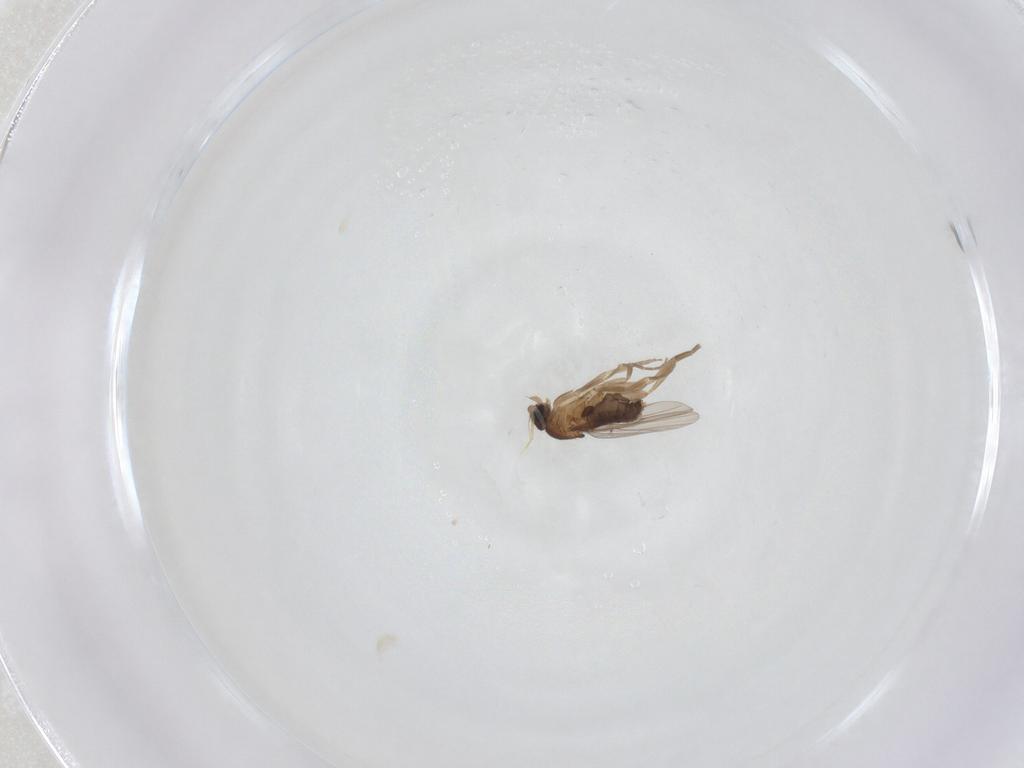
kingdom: Animalia
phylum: Arthropoda
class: Insecta
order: Diptera
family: Phoridae
